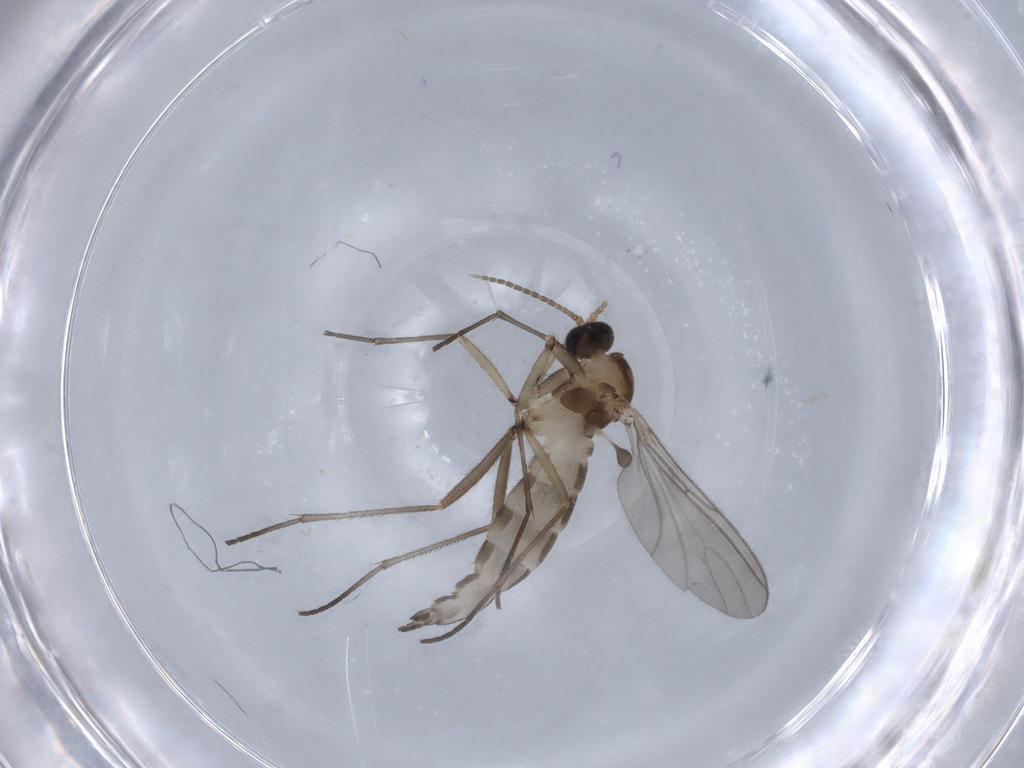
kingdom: Animalia
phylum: Arthropoda
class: Insecta
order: Diptera
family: Sciaridae
